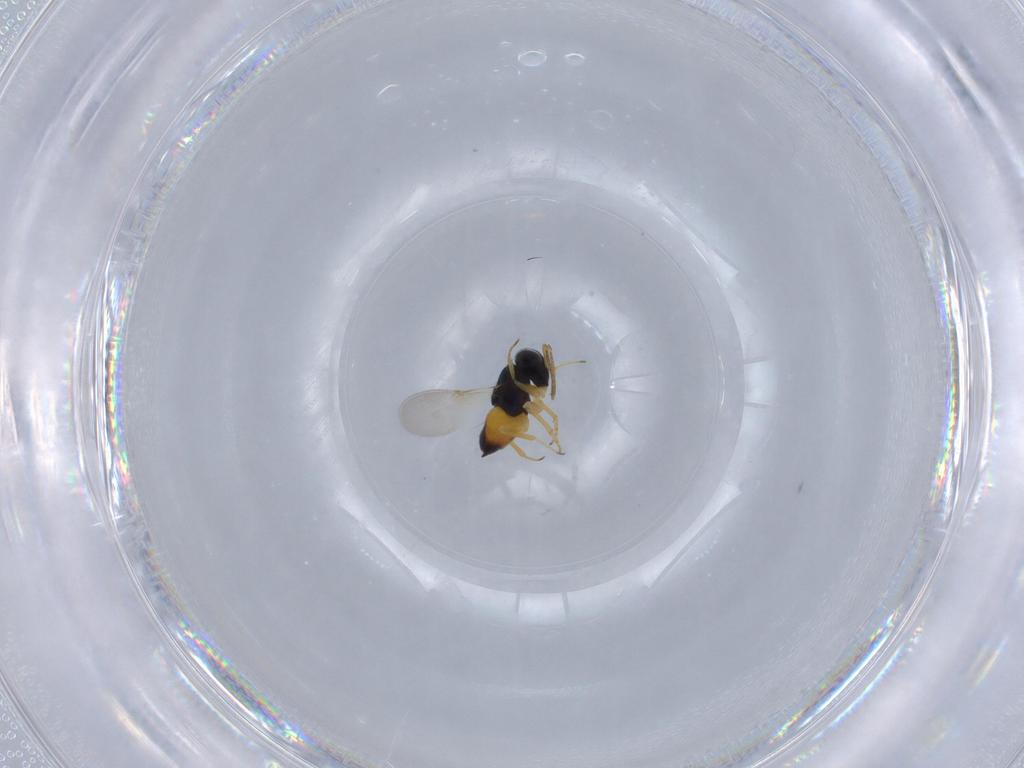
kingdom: Animalia
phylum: Arthropoda
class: Insecta
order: Hymenoptera
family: Encyrtidae
